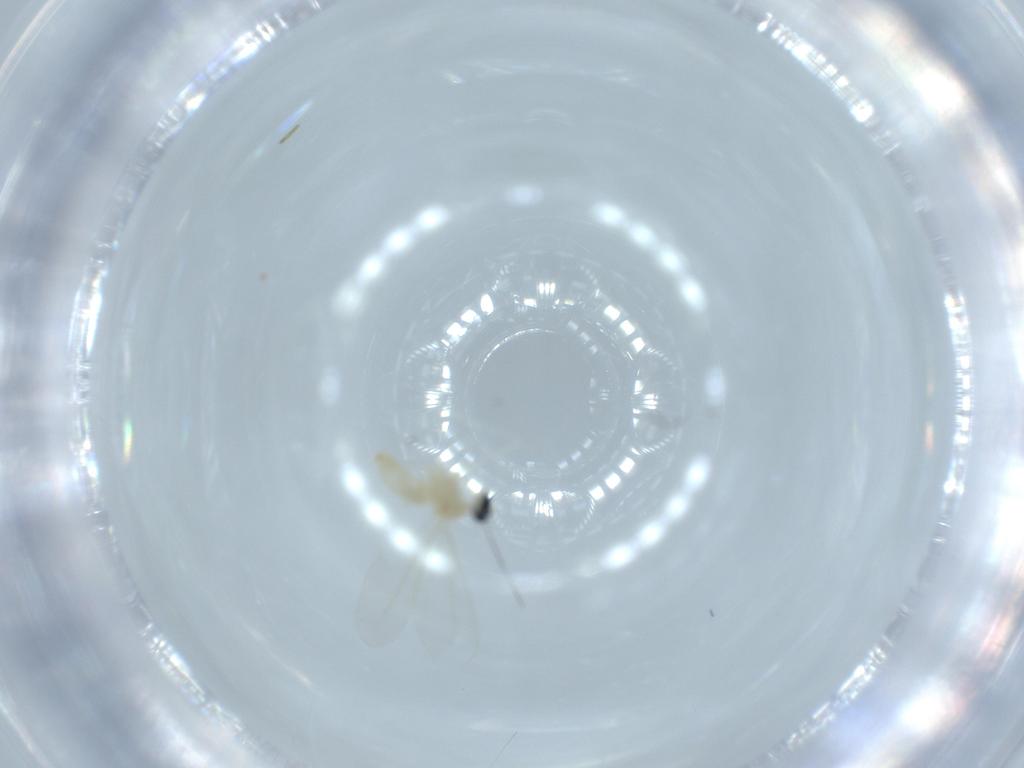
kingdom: Animalia
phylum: Arthropoda
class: Insecta
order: Diptera
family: Cecidomyiidae
